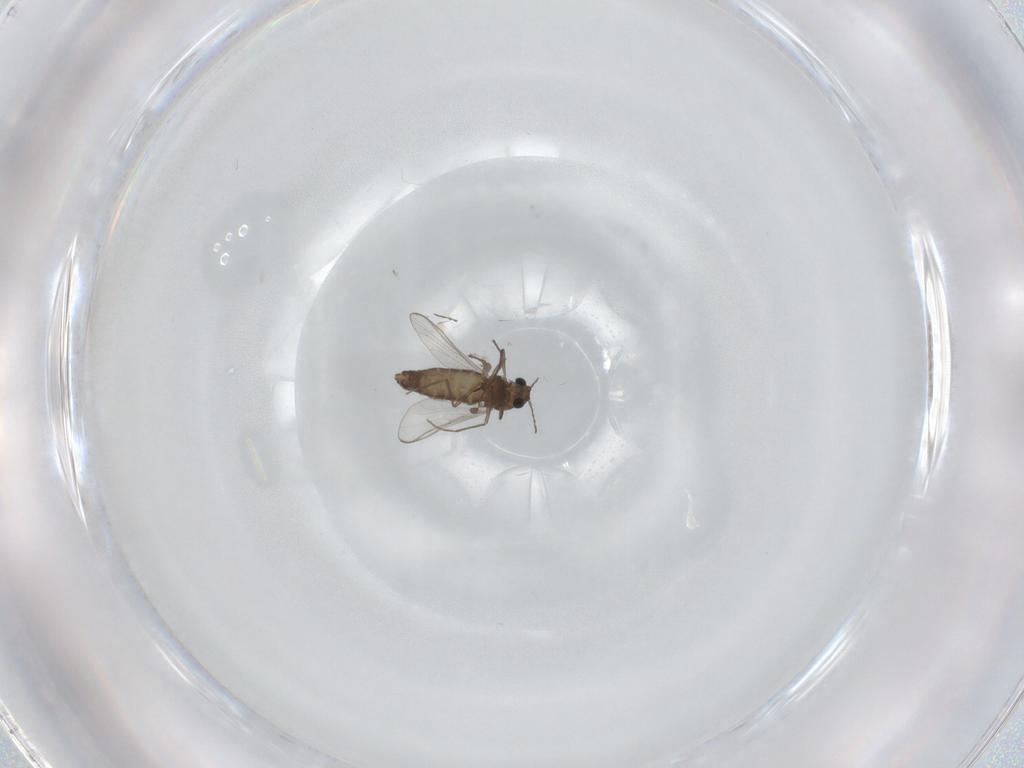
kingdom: Animalia
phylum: Arthropoda
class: Insecta
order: Diptera
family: Chironomidae
